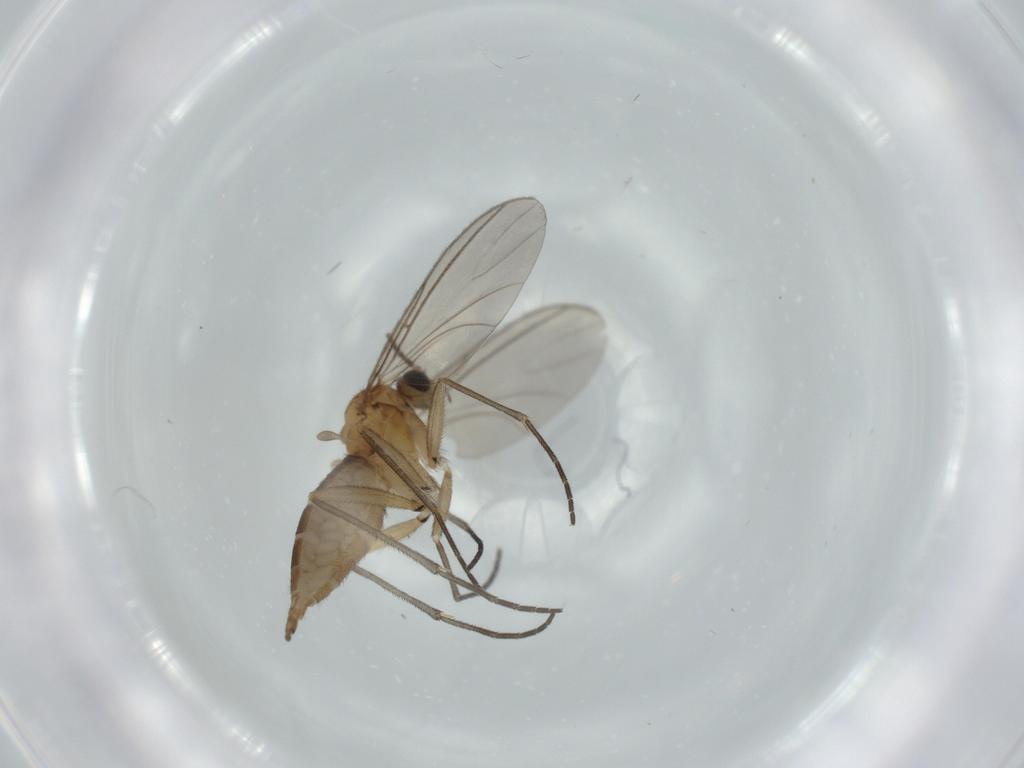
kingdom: Animalia
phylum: Arthropoda
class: Insecta
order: Diptera
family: Sciaridae
